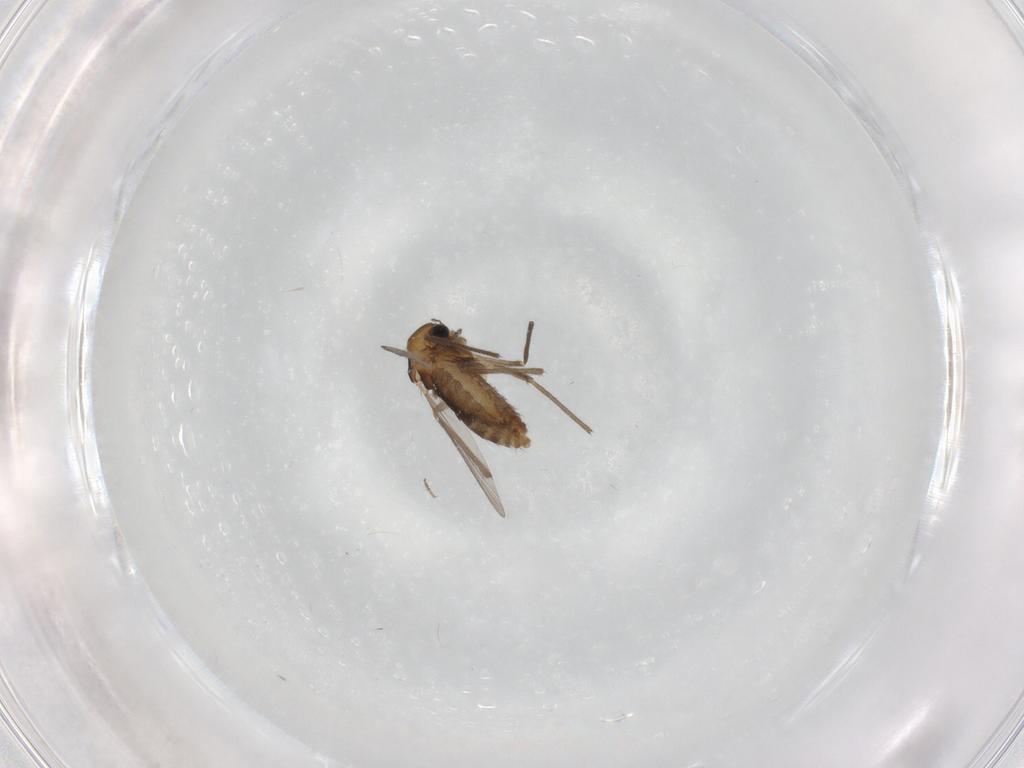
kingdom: Animalia
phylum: Arthropoda
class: Insecta
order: Diptera
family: Chironomidae
